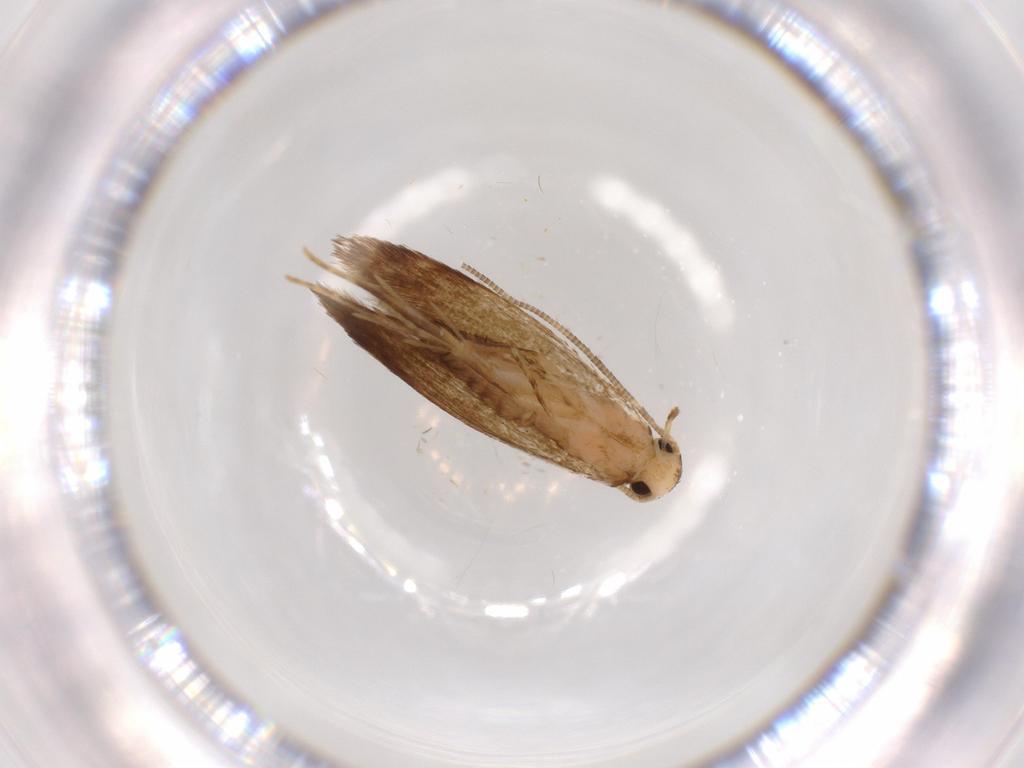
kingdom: Animalia
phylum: Arthropoda
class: Insecta
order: Lepidoptera
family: Tineidae
